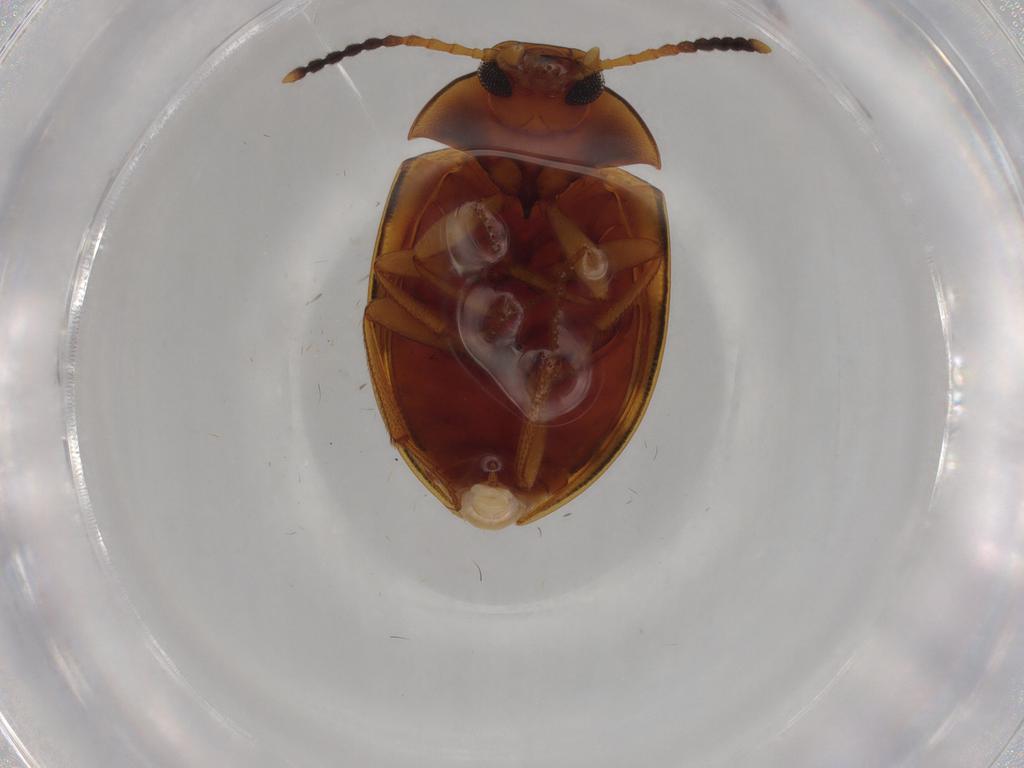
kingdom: Animalia
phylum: Arthropoda
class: Insecta
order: Coleoptera
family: Erotylidae
